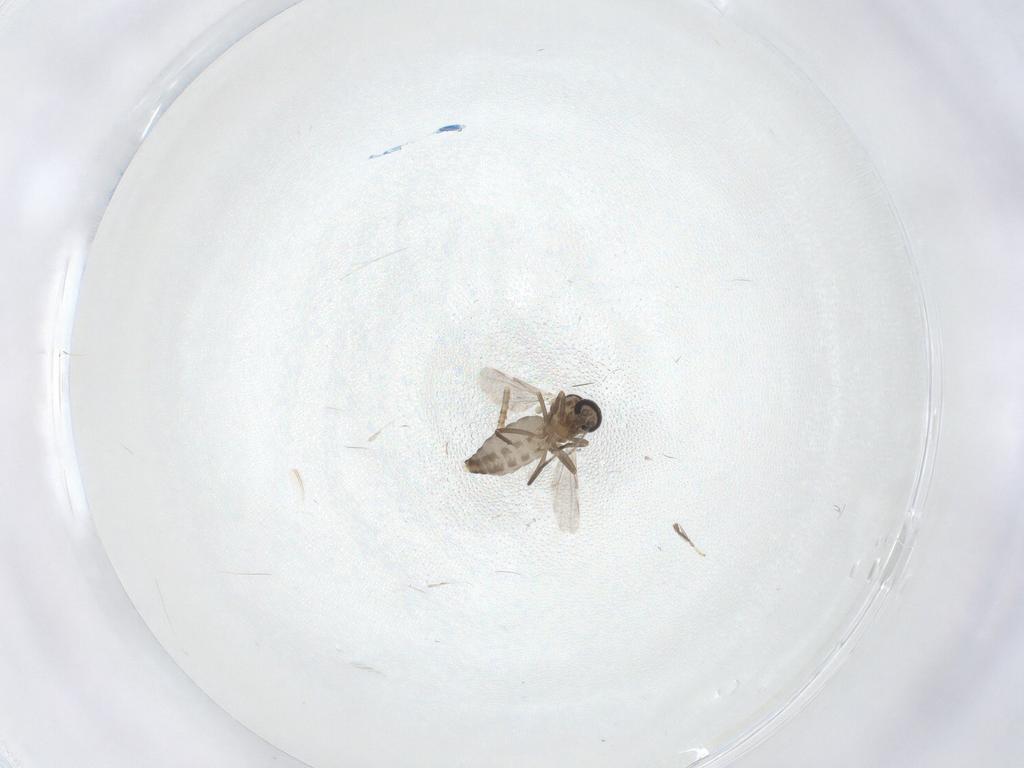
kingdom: Animalia
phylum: Arthropoda
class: Insecta
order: Diptera
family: Ceratopogonidae
